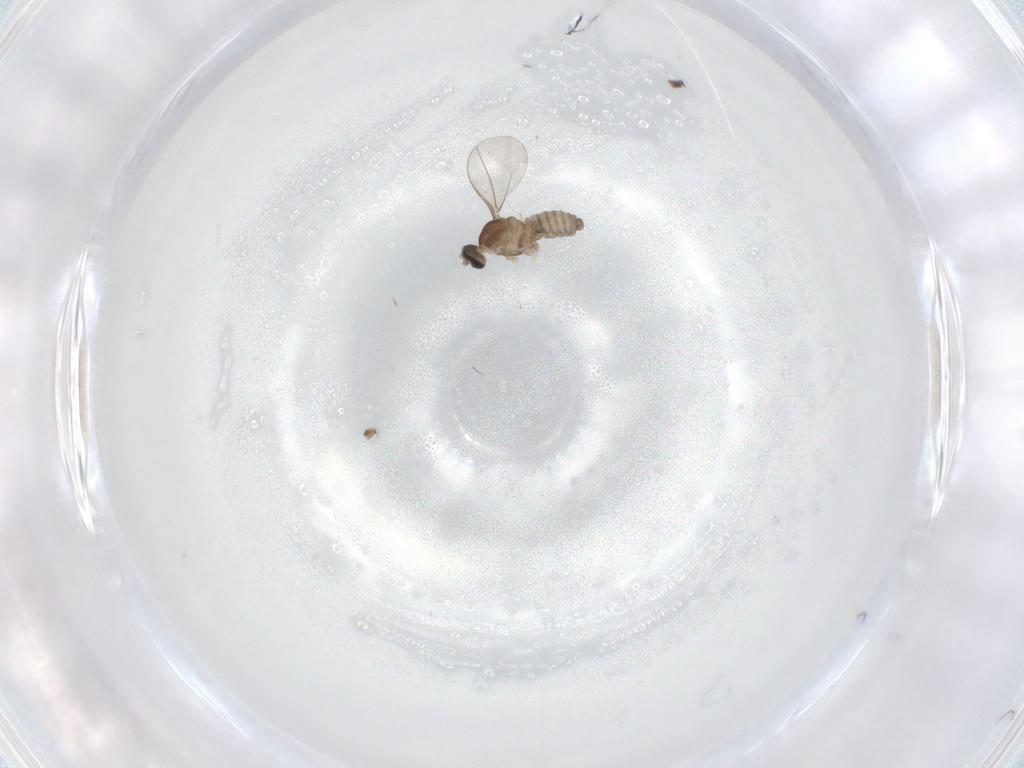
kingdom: Animalia
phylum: Arthropoda
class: Insecta
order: Diptera
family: Cecidomyiidae
